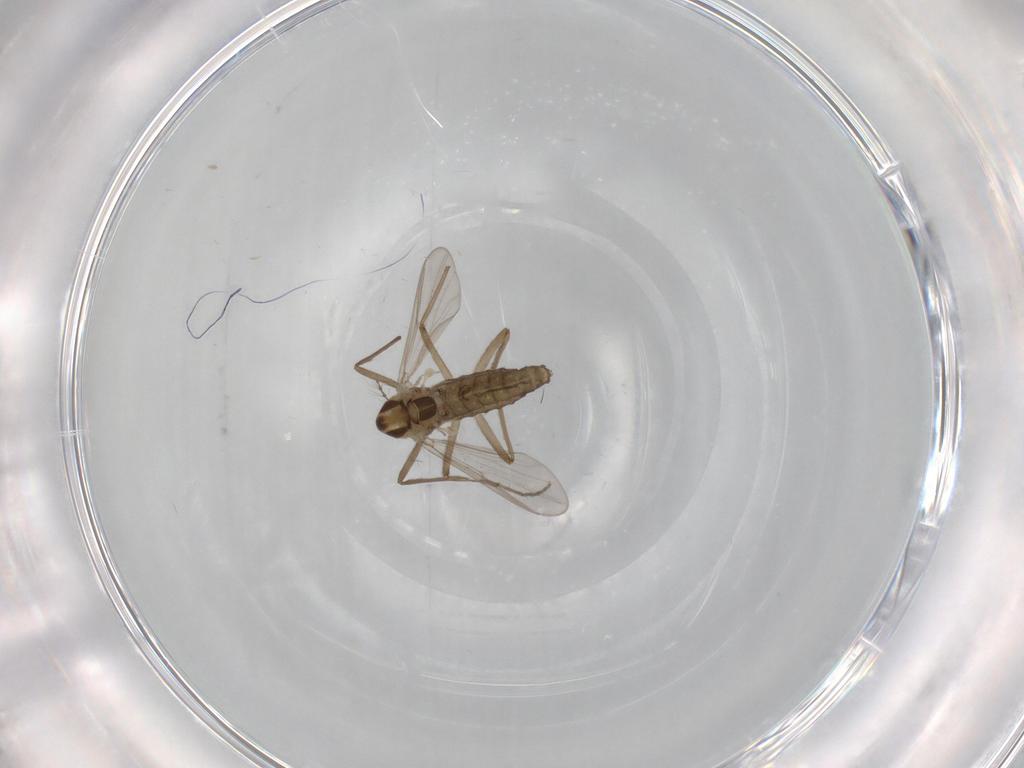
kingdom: Animalia
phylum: Arthropoda
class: Insecta
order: Diptera
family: Chironomidae
